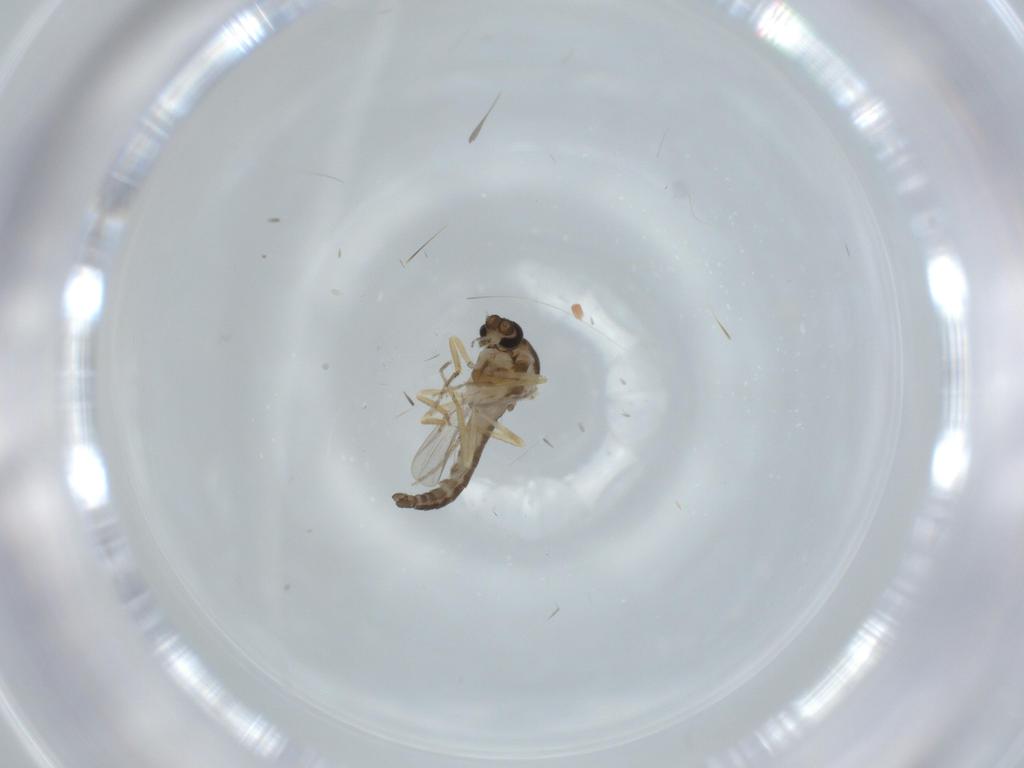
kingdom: Animalia
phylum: Arthropoda
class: Insecta
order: Diptera
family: Ceratopogonidae
